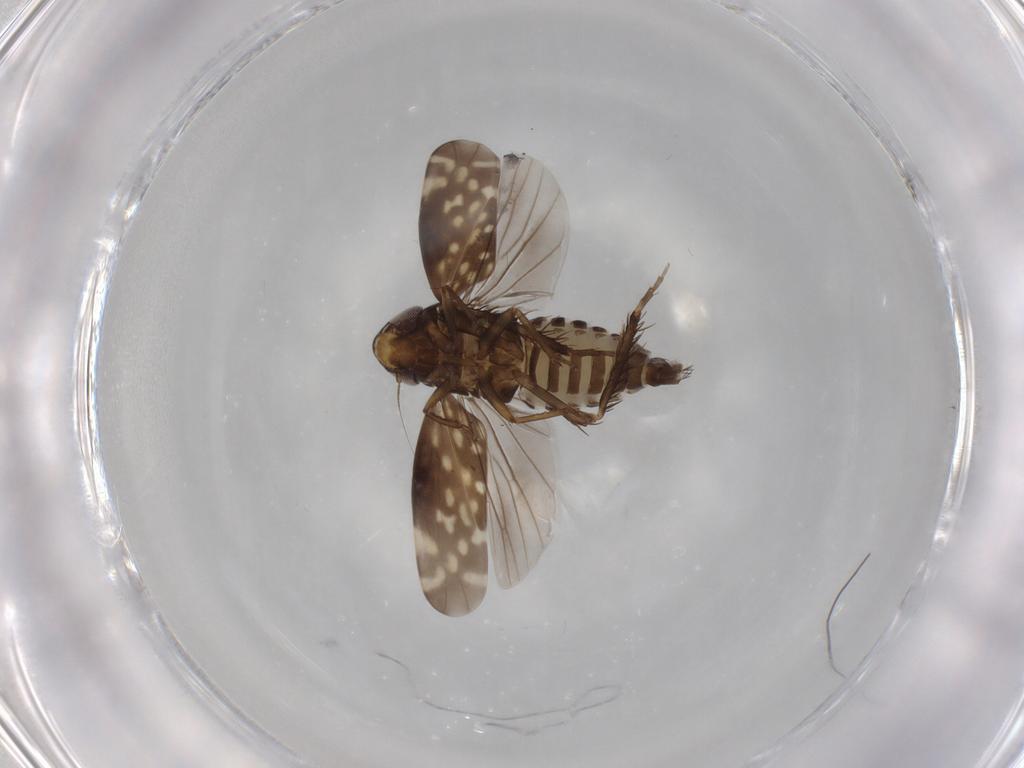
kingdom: Animalia
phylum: Arthropoda
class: Insecta
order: Hemiptera
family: Cicadellidae
